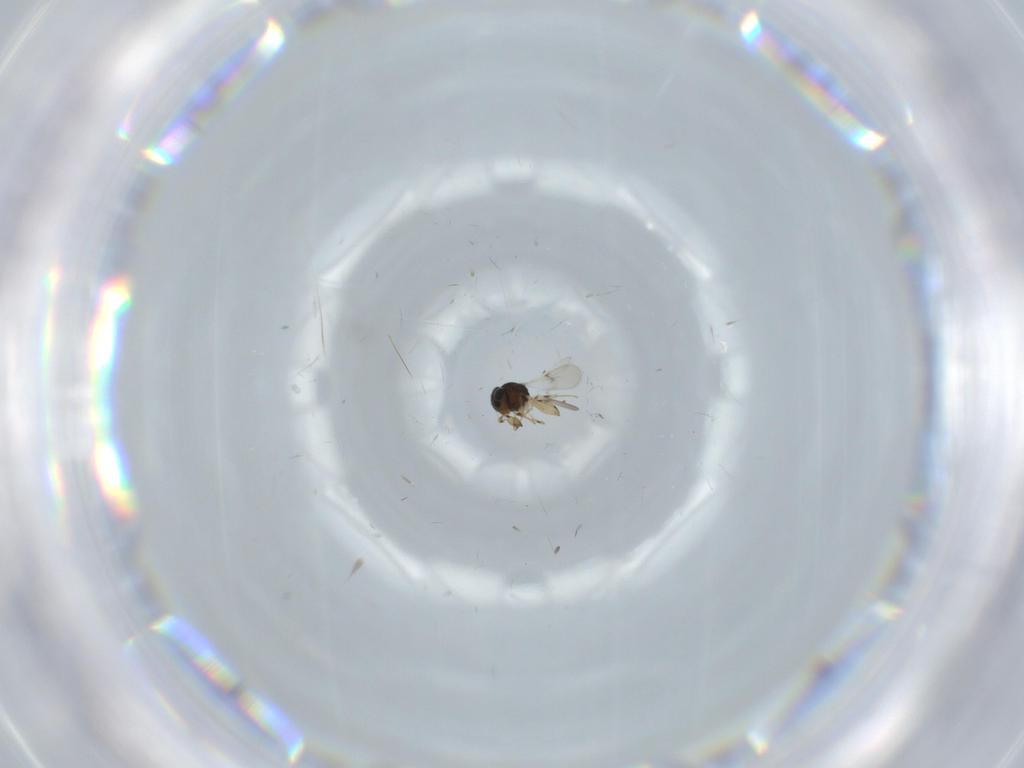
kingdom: Animalia
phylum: Arthropoda
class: Insecta
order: Hymenoptera
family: Scelionidae
